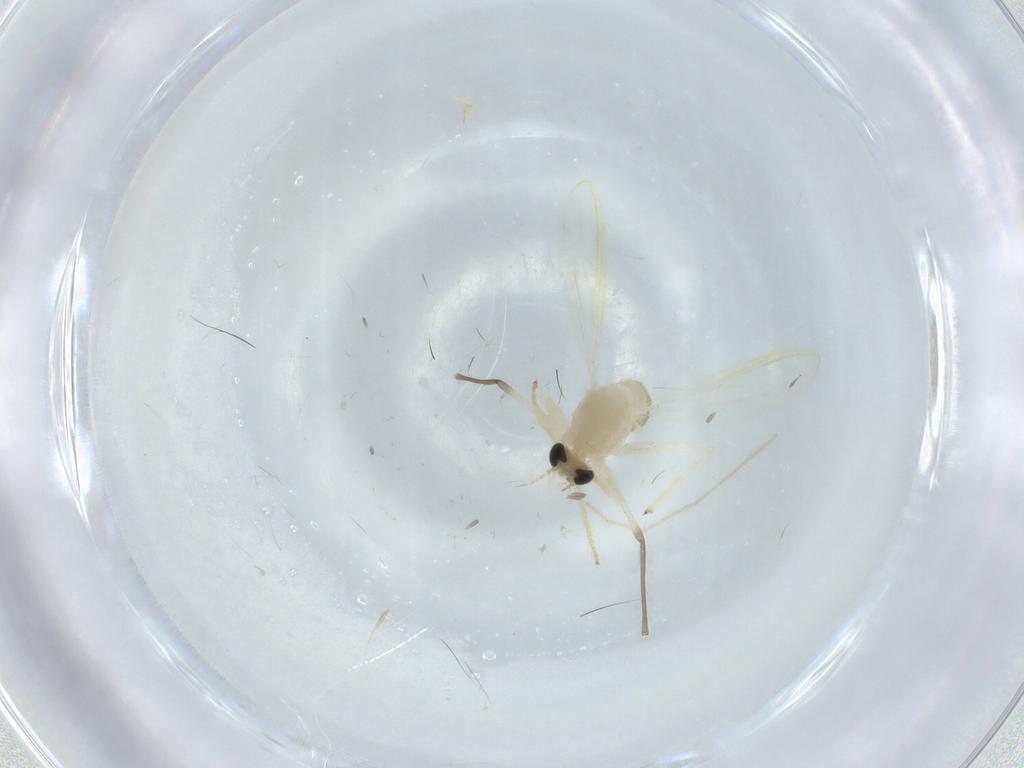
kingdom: Animalia
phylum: Arthropoda
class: Insecta
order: Diptera
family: Chironomidae
